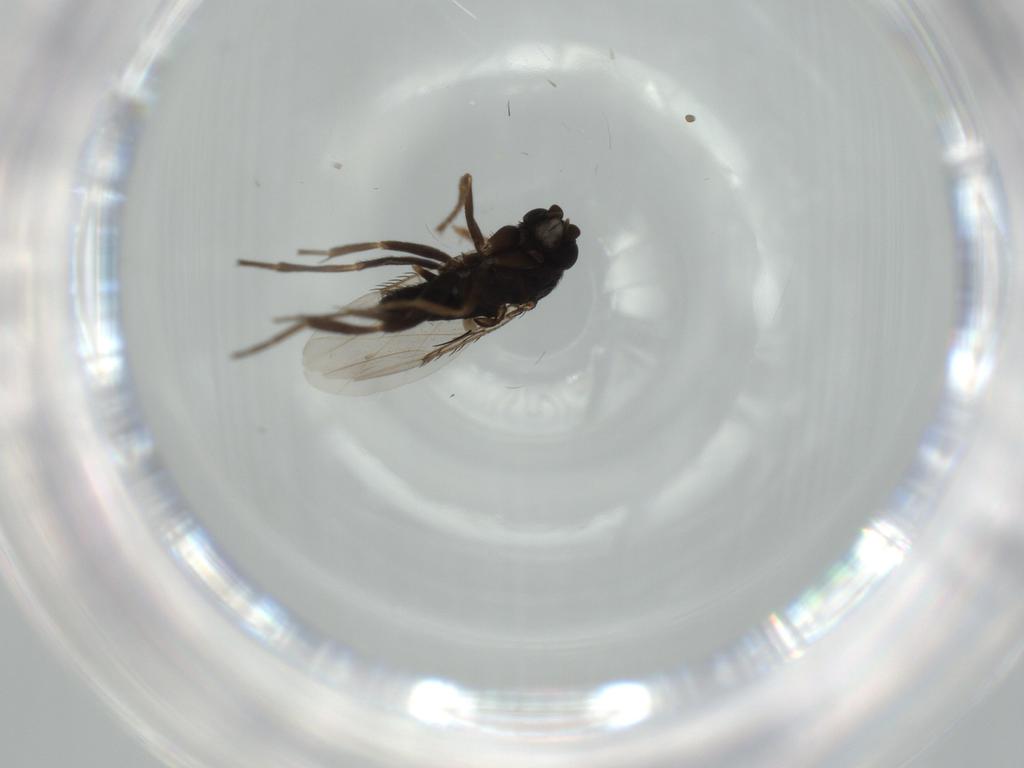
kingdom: Animalia
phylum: Arthropoda
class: Insecta
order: Diptera
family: Dolichopodidae
